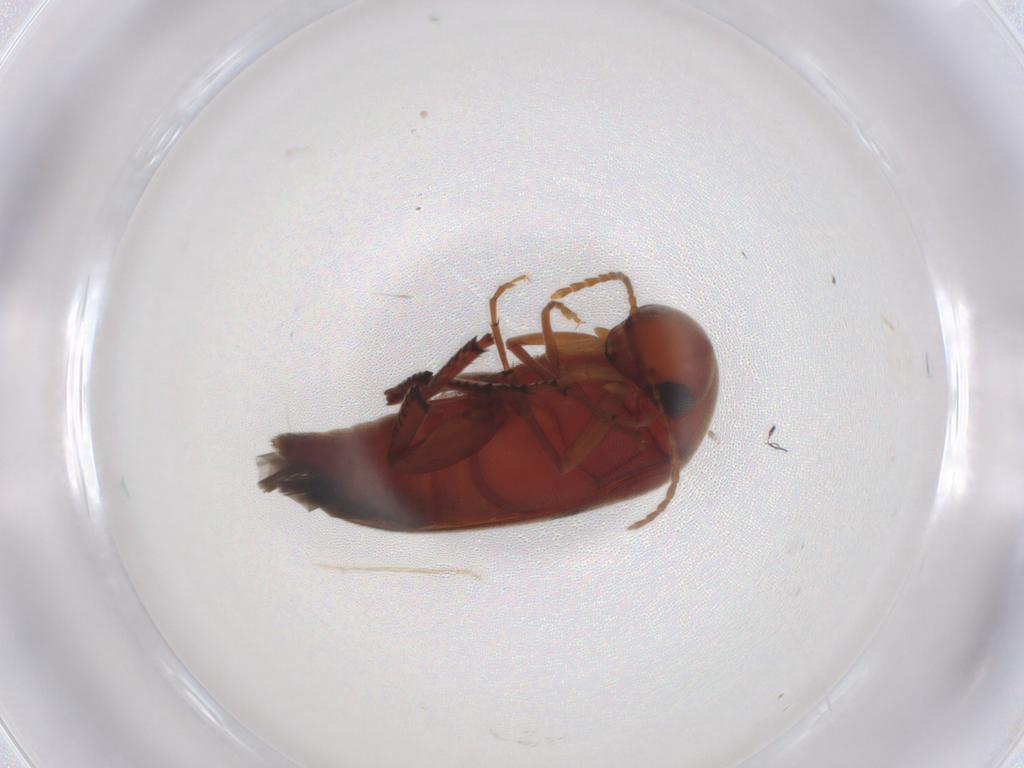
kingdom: Animalia
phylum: Arthropoda
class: Insecta
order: Coleoptera
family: Mordellidae
